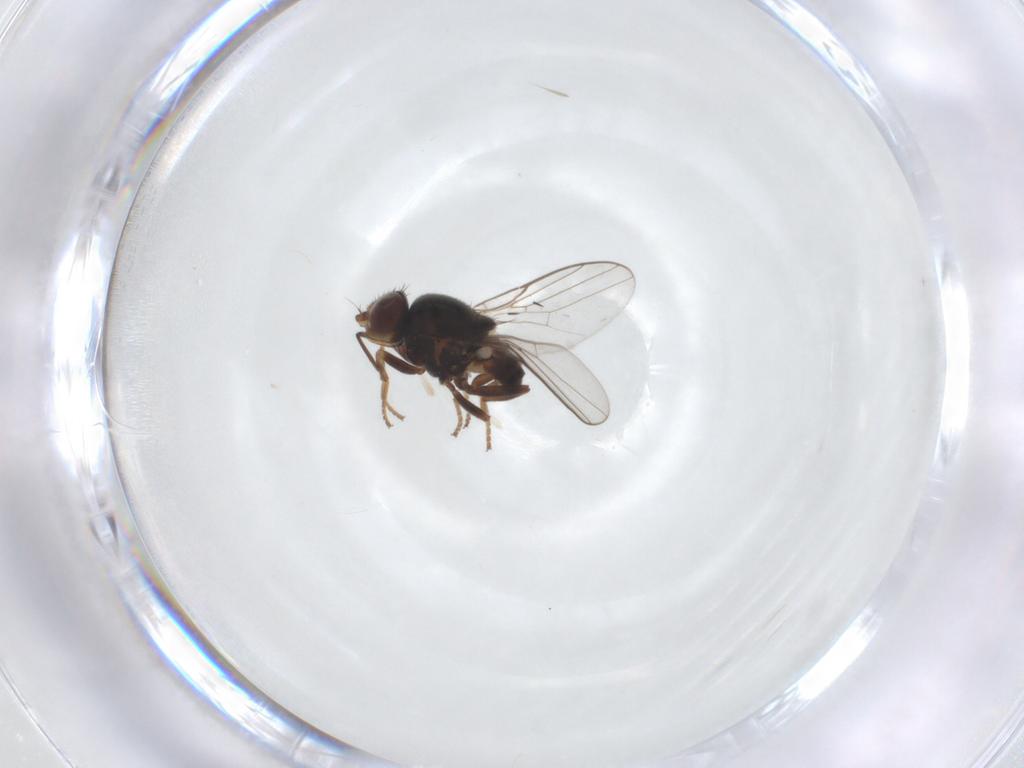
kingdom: Animalia
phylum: Arthropoda
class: Insecta
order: Diptera
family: Chloropidae
